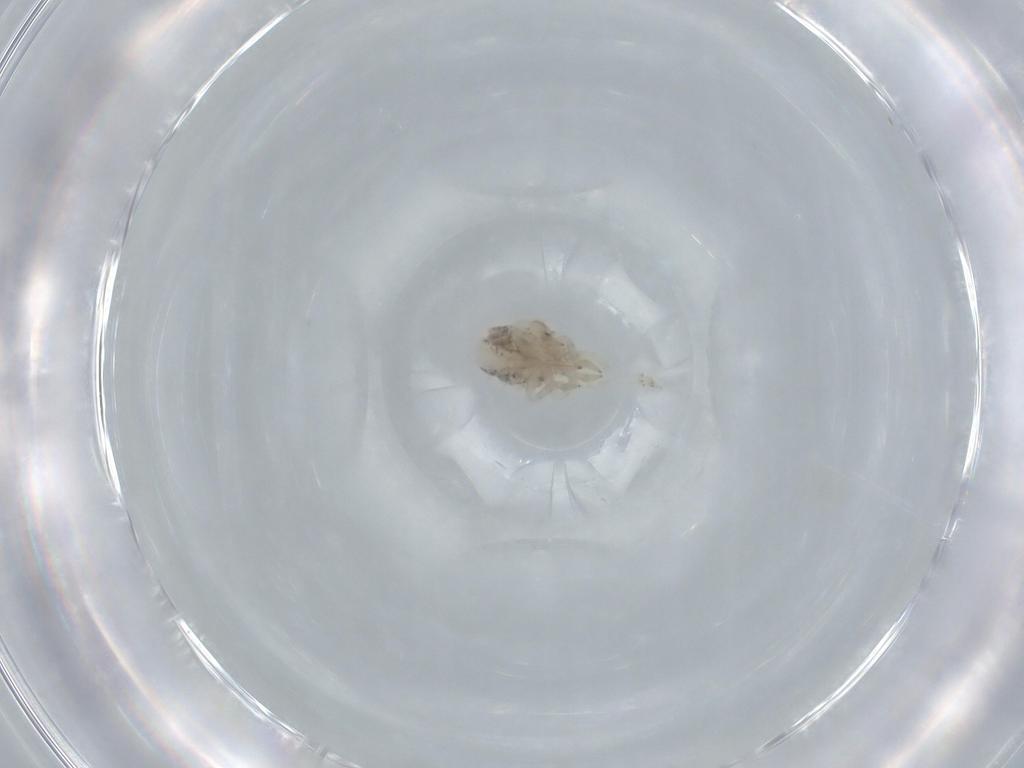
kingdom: Animalia
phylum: Arthropoda
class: Insecta
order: Hemiptera
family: Acanaloniidae
